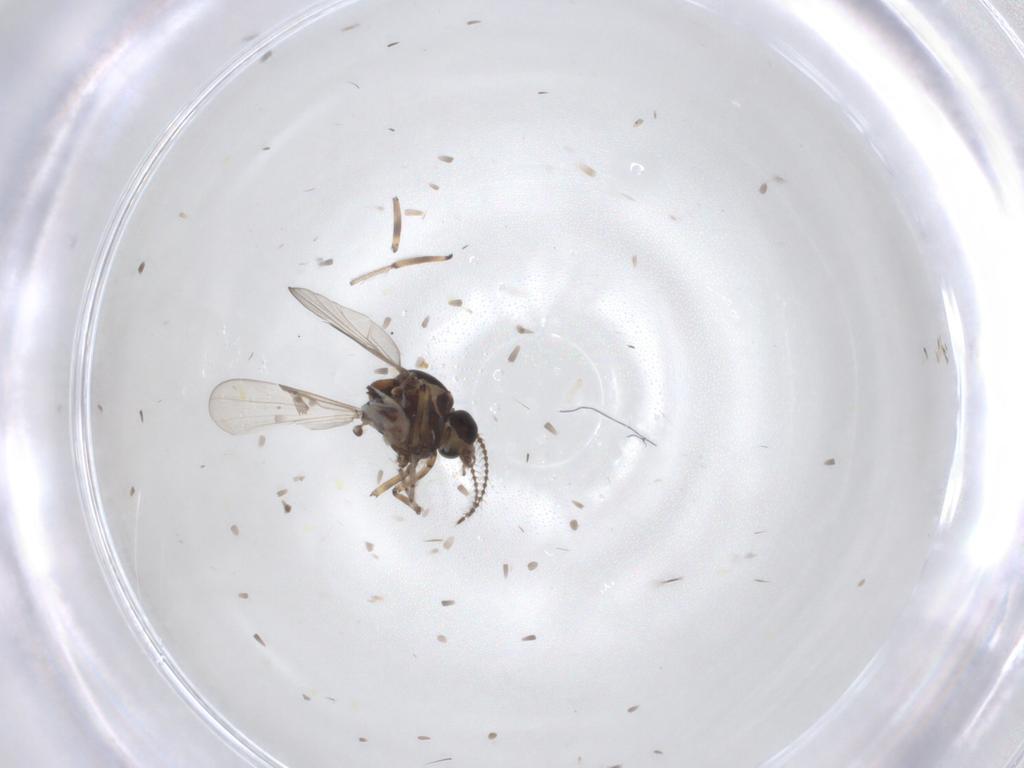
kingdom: Animalia
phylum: Arthropoda
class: Insecta
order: Diptera
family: Ceratopogonidae
